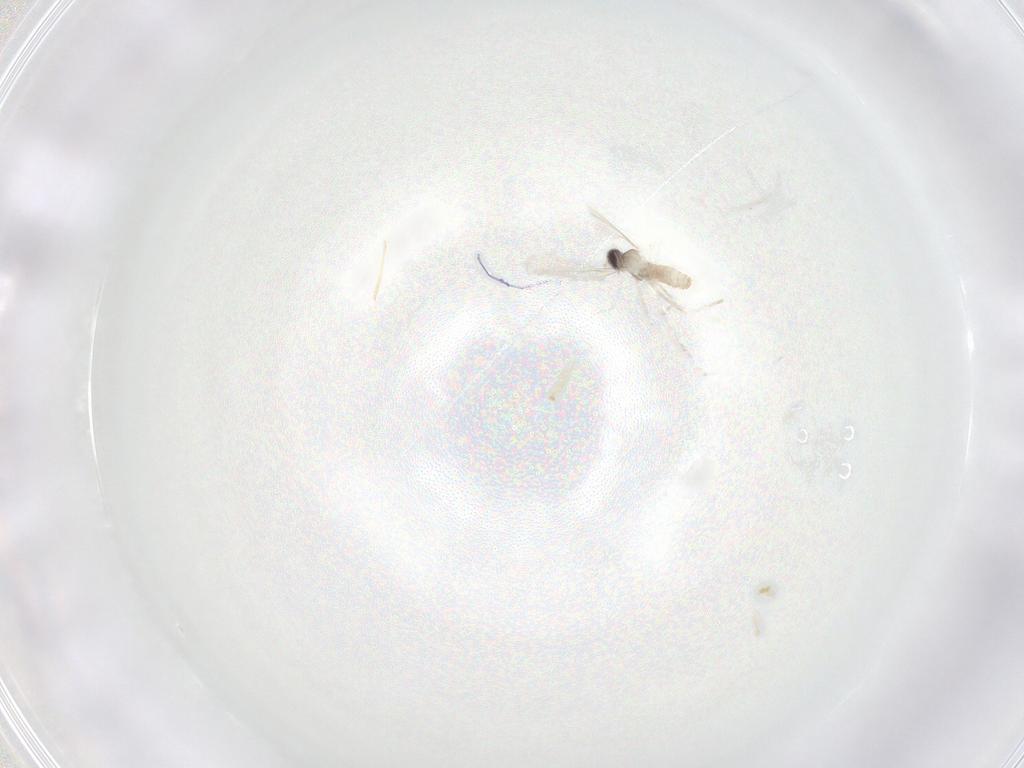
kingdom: Animalia
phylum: Arthropoda
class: Insecta
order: Diptera
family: Cecidomyiidae
